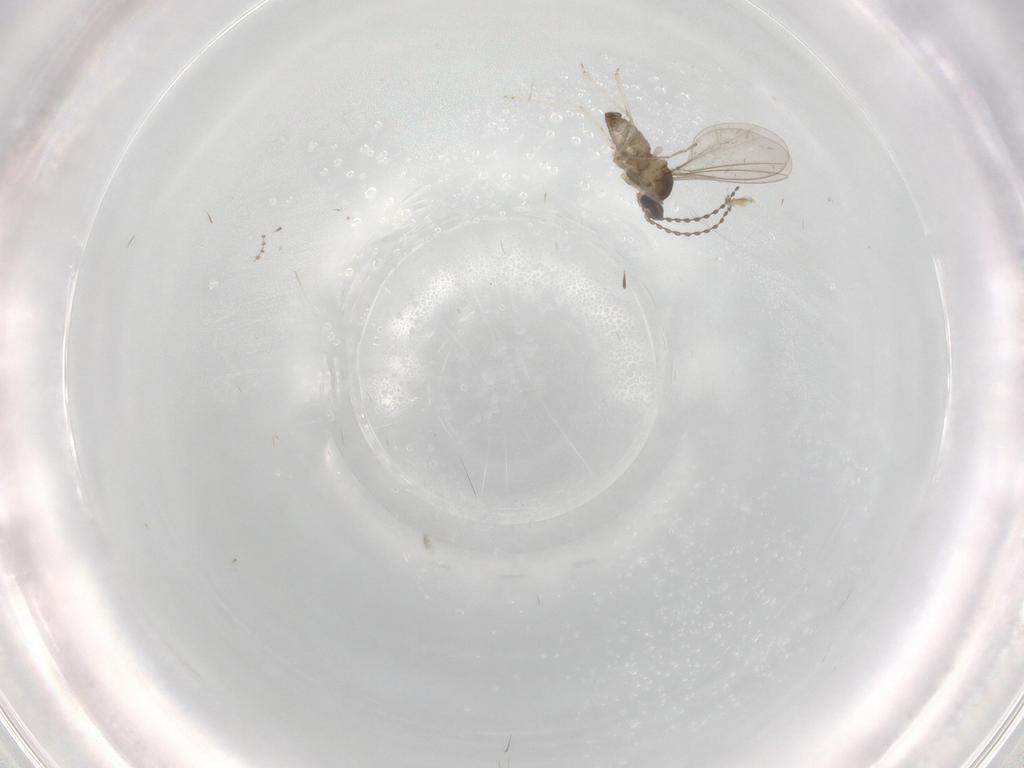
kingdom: Animalia
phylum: Arthropoda
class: Insecta
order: Diptera
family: Cecidomyiidae
